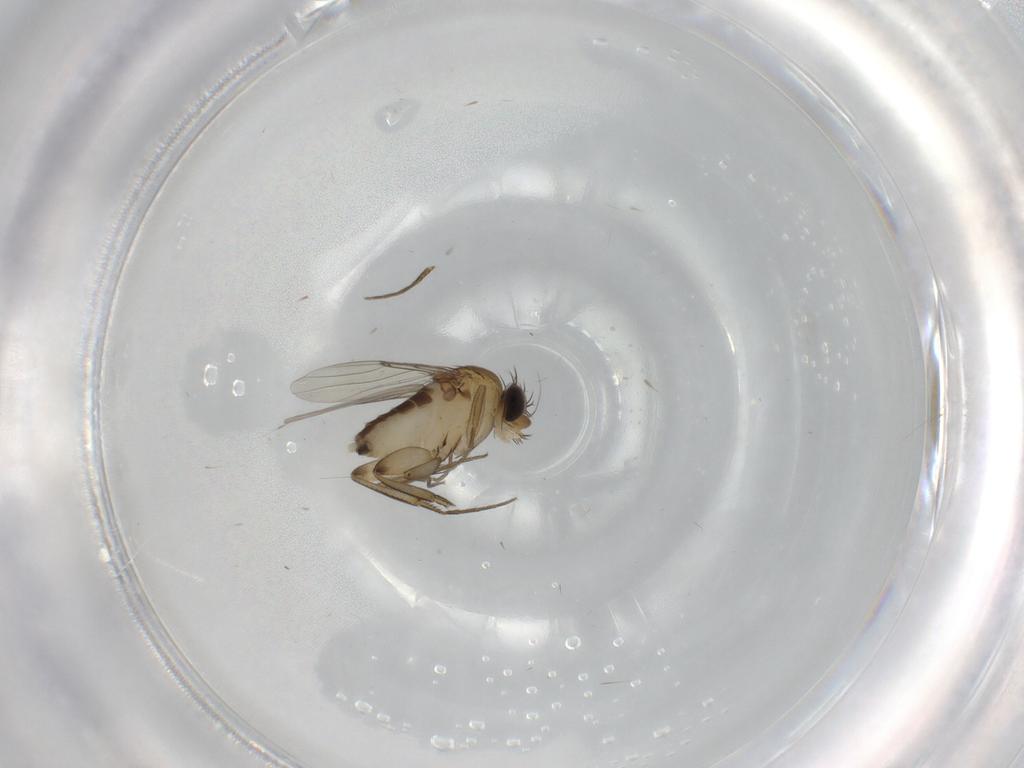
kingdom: Animalia
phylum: Arthropoda
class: Insecta
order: Diptera
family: Phoridae
